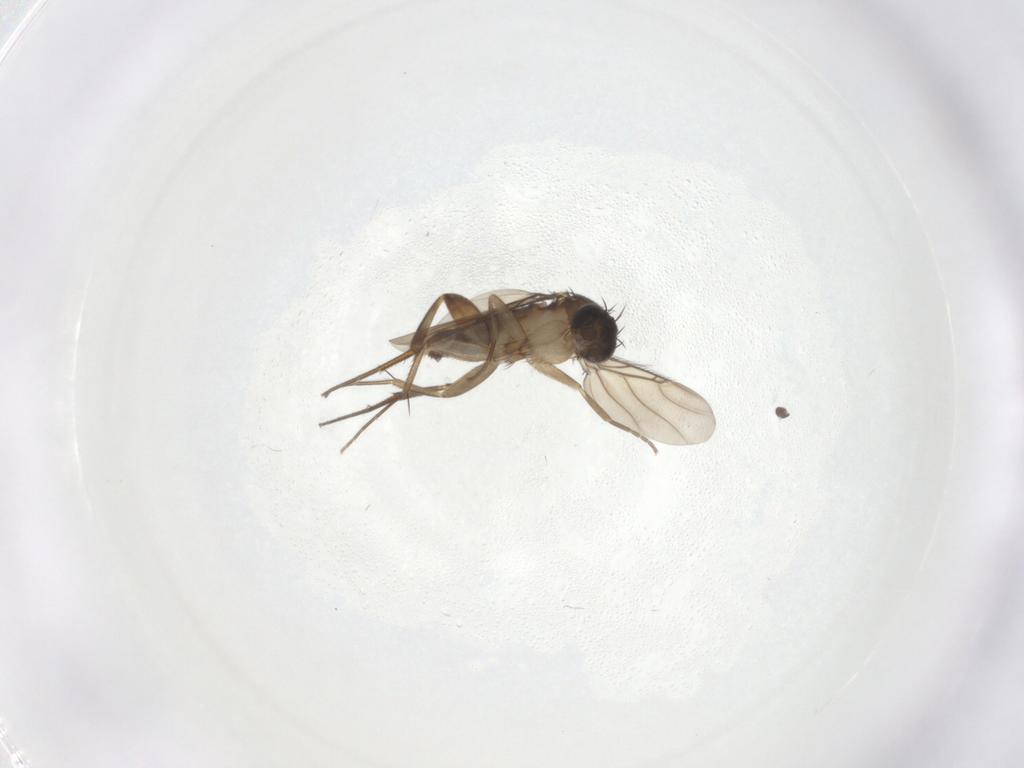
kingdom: Animalia
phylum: Arthropoda
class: Insecta
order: Diptera
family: Phoridae
